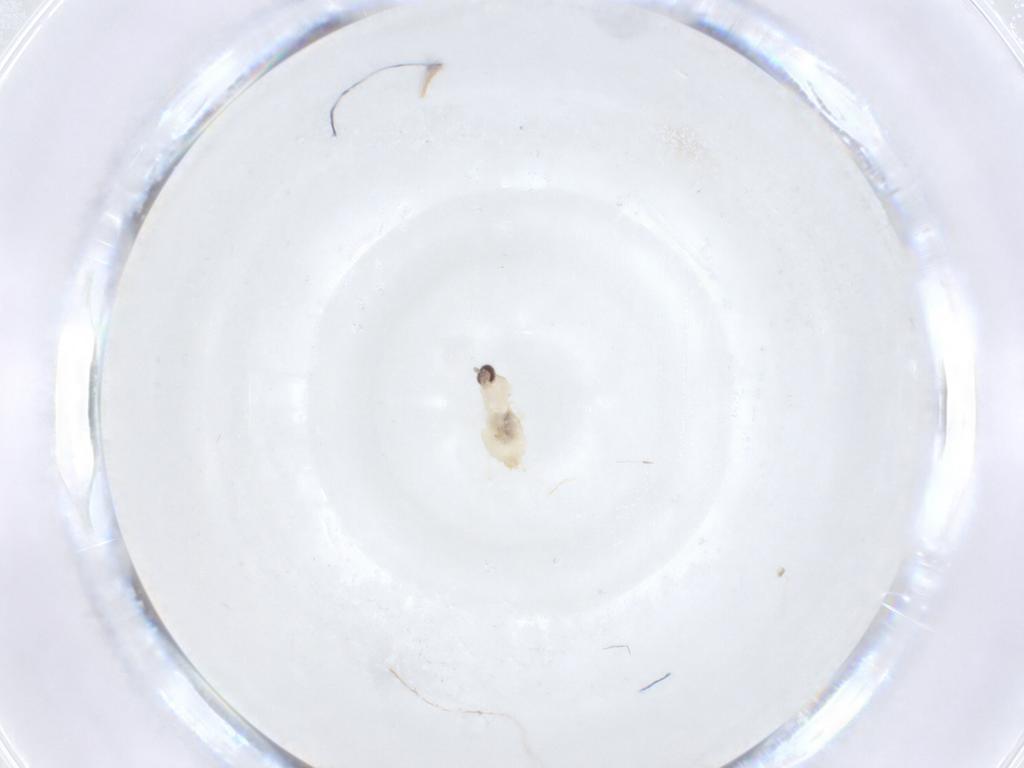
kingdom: Animalia
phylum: Arthropoda
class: Insecta
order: Diptera
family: Cecidomyiidae
